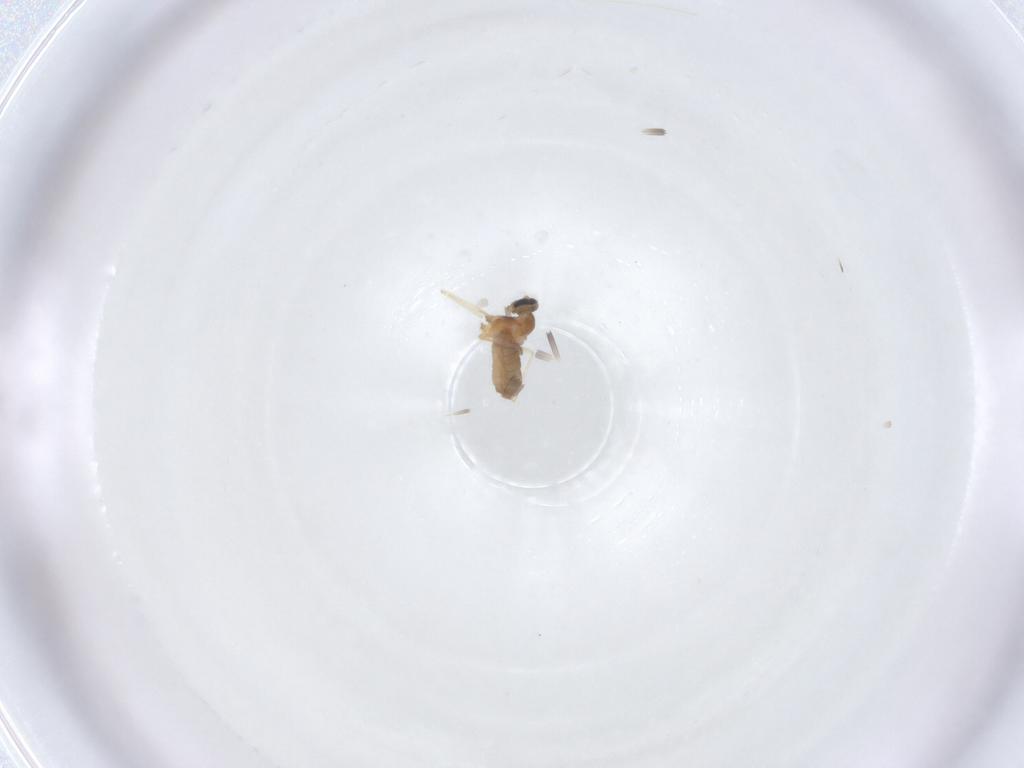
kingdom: Animalia
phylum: Arthropoda
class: Insecta
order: Diptera
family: Cecidomyiidae
